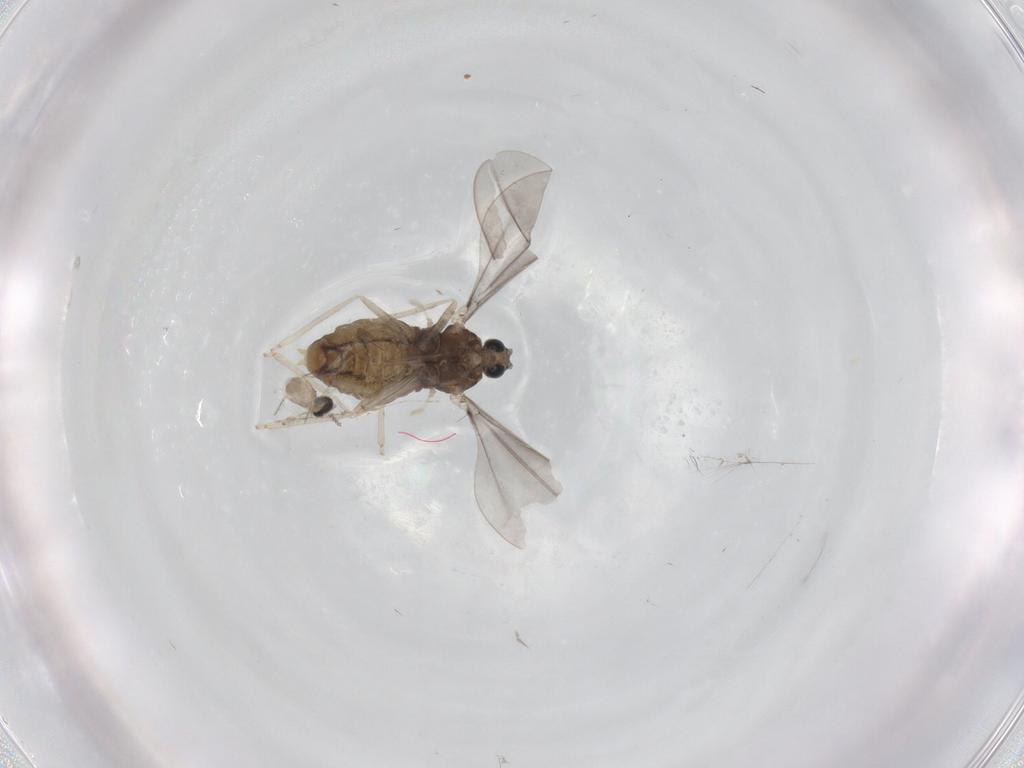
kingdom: Animalia
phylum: Arthropoda
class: Insecta
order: Diptera
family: Cecidomyiidae
